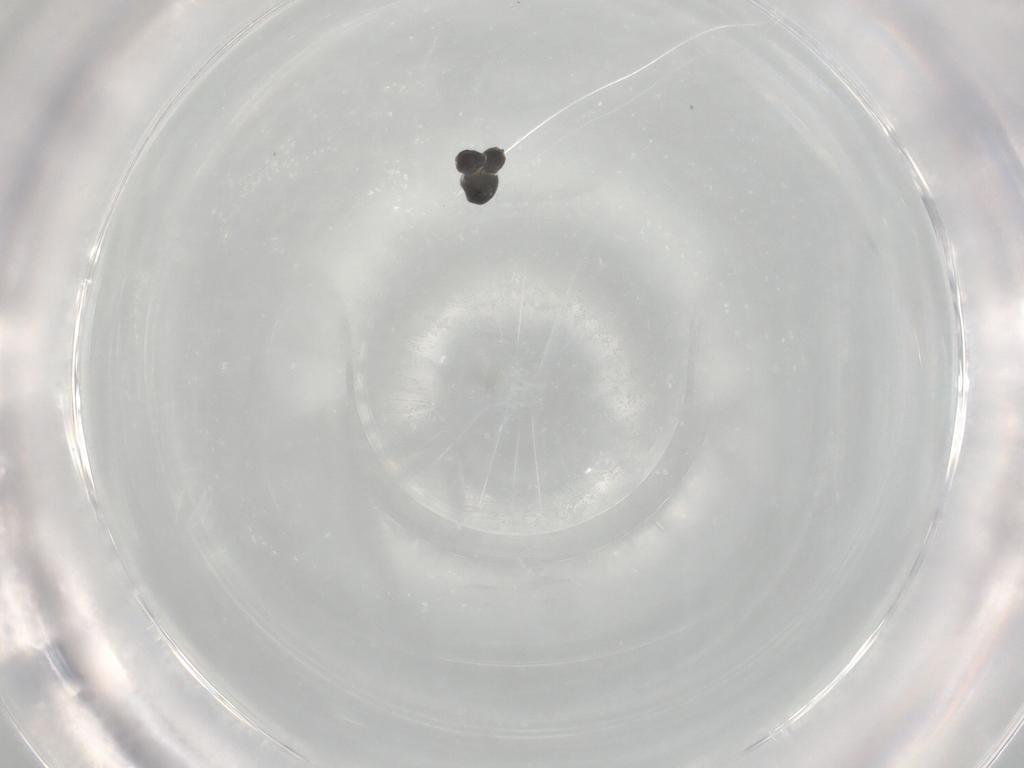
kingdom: Animalia
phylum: Arthropoda
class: Insecta
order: Hymenoptera
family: Ceraphronidae
